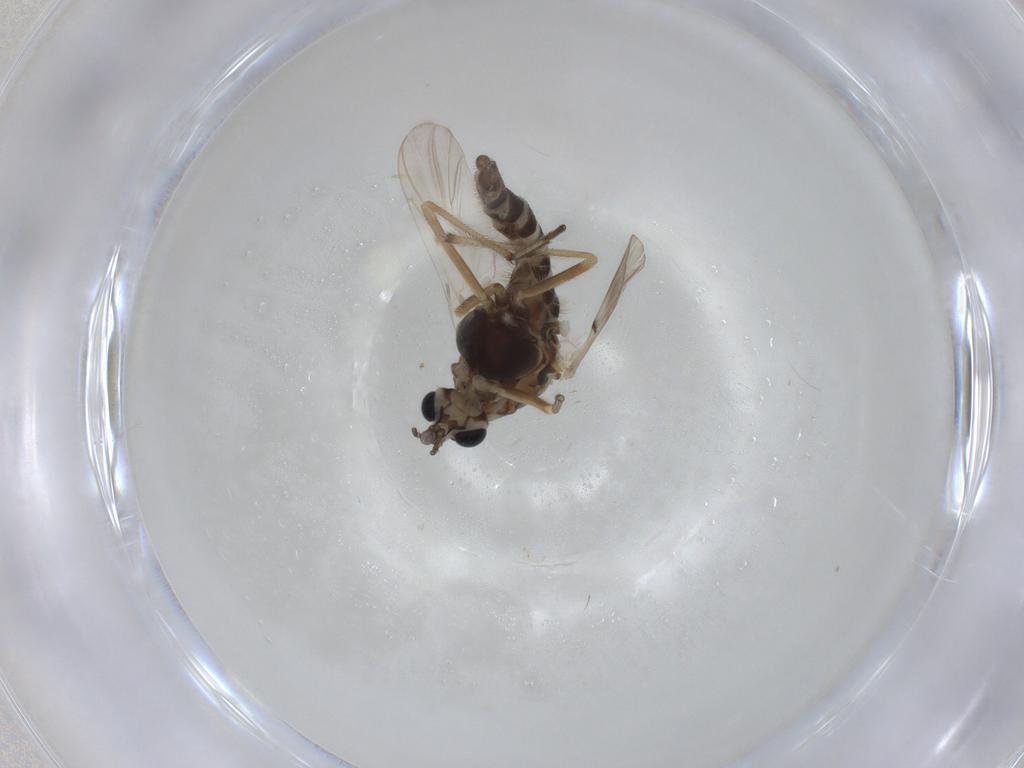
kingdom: Animalia
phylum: Arthropoda
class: Insecta
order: Diptera
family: Chironomidae
